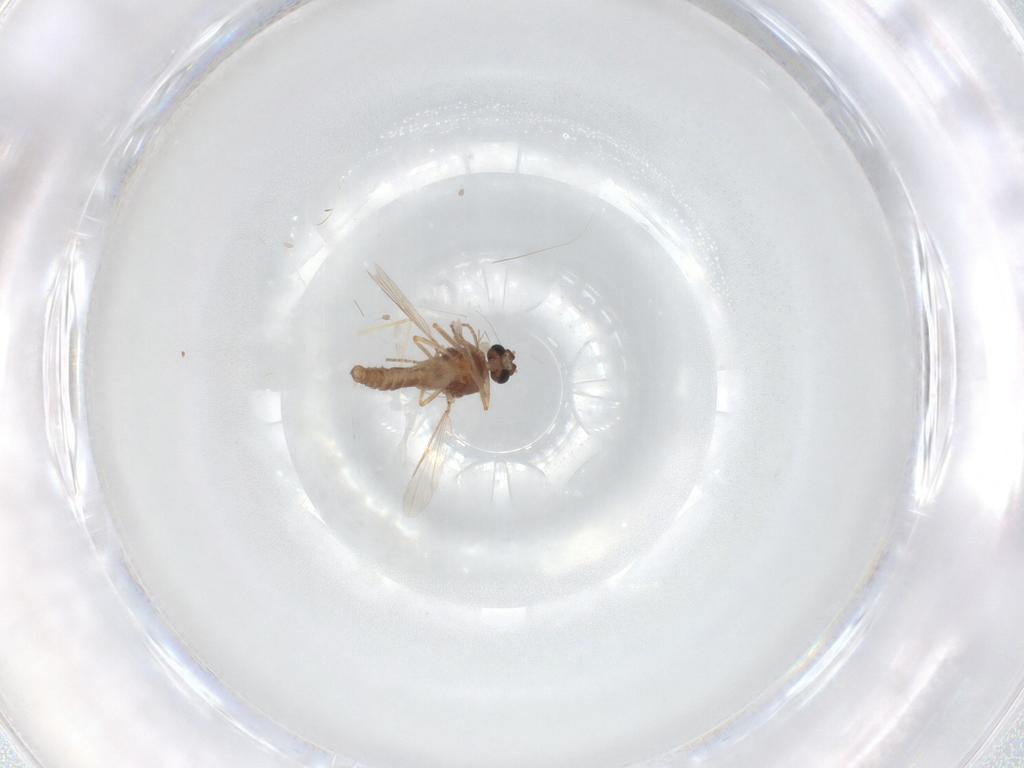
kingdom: Animalia
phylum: Arthropoda
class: Insecta
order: Diptera
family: Ceratopogonidae
